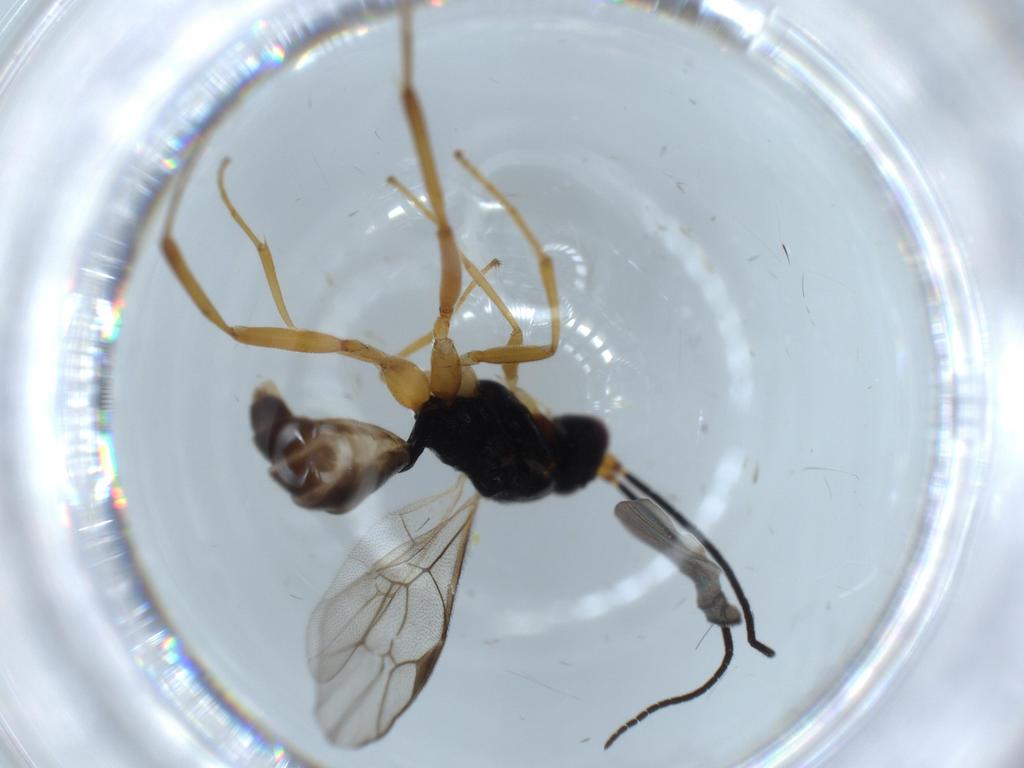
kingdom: Animalia
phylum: Arthropoda
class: Insecta
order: Hymenoptera
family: Ichneumonidae
